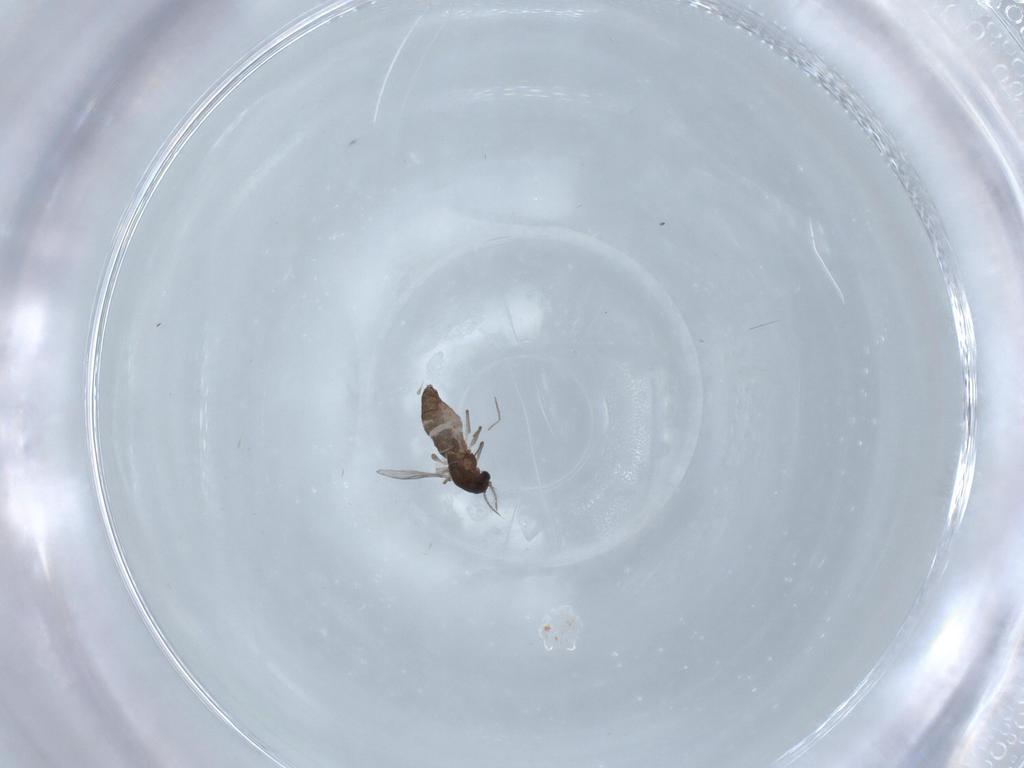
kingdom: Animalia
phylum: Arthropoda
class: Insecta
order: Diptera
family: Chironomidae
